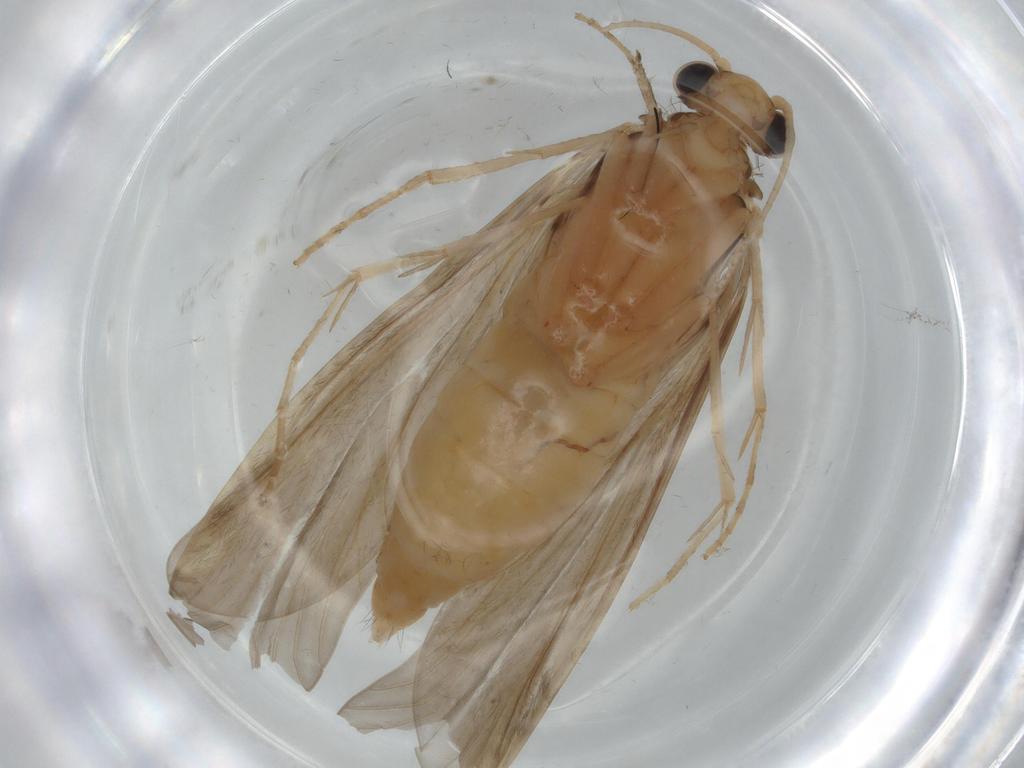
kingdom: Animalia
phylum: Arthropoda
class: Insecta
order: Trichoptera
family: Ecnomidae
